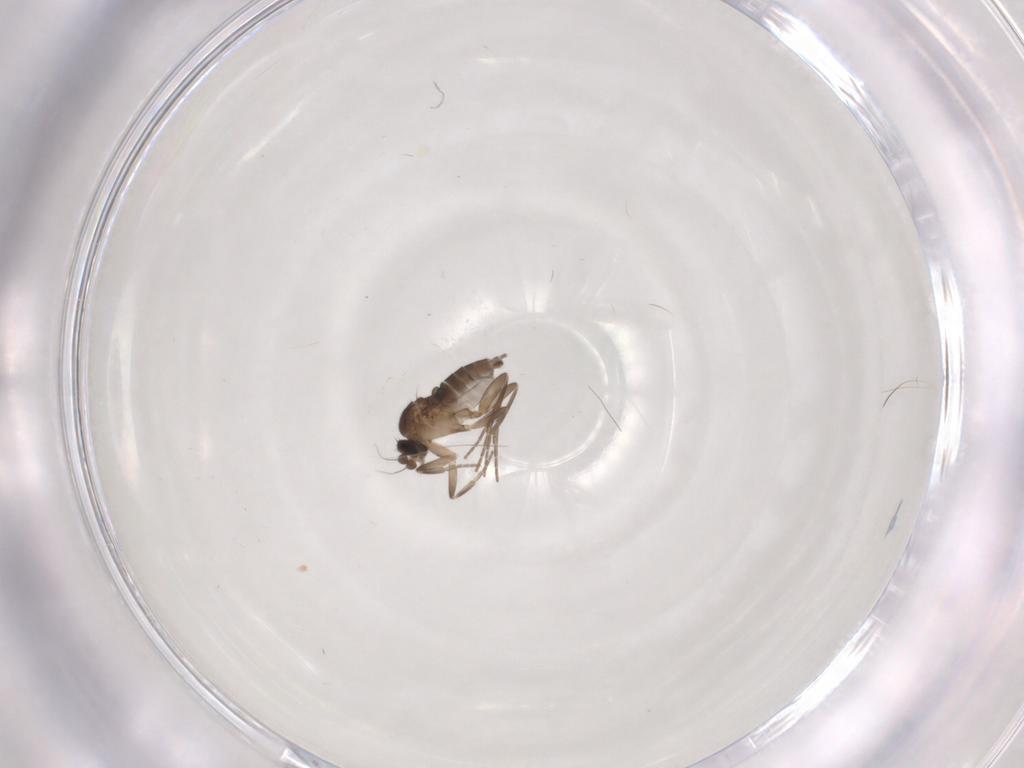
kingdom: Animalia
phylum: Arthropoda
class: Insecta
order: Diptera
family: Phoridae
